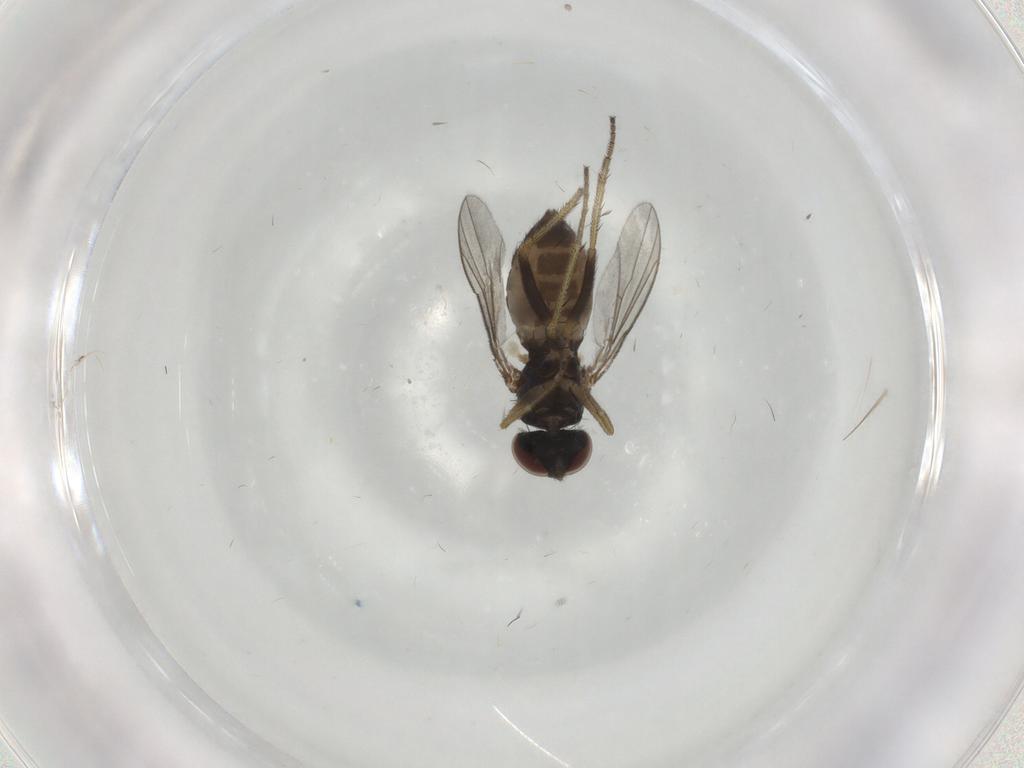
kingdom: Animalia
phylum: Arthropoda
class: Insecta
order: Diptera
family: Cecidomyiidae
